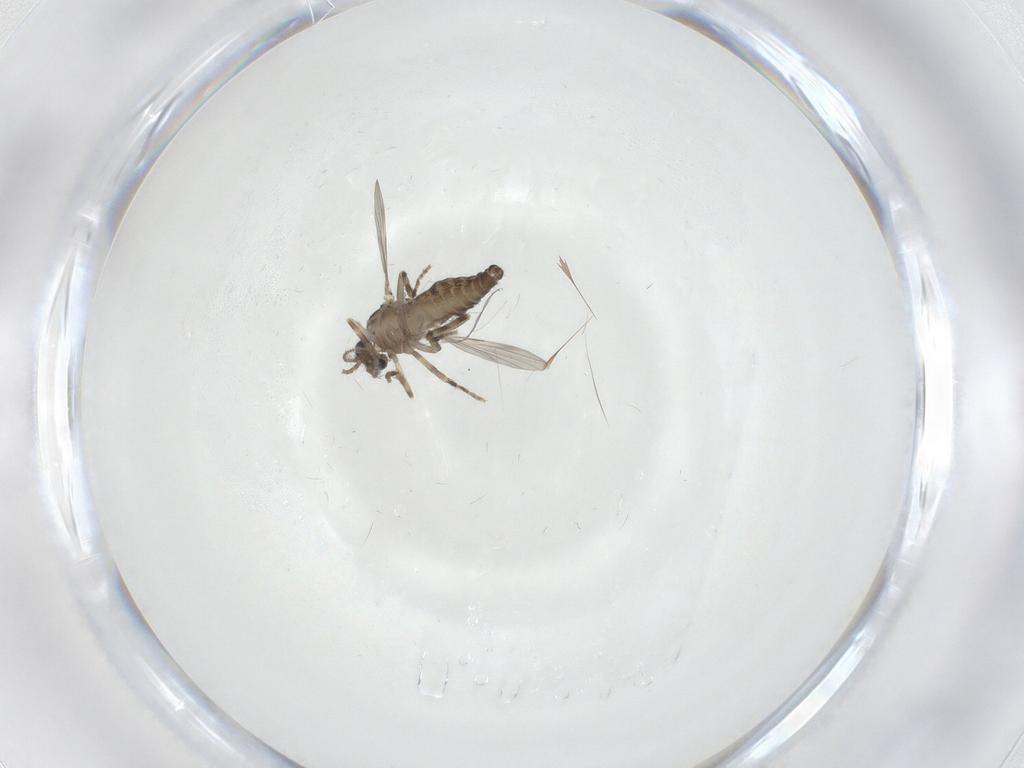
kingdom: Animalia
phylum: Arthropoda
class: Insecta
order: Diptera
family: Ceratopogonidae
